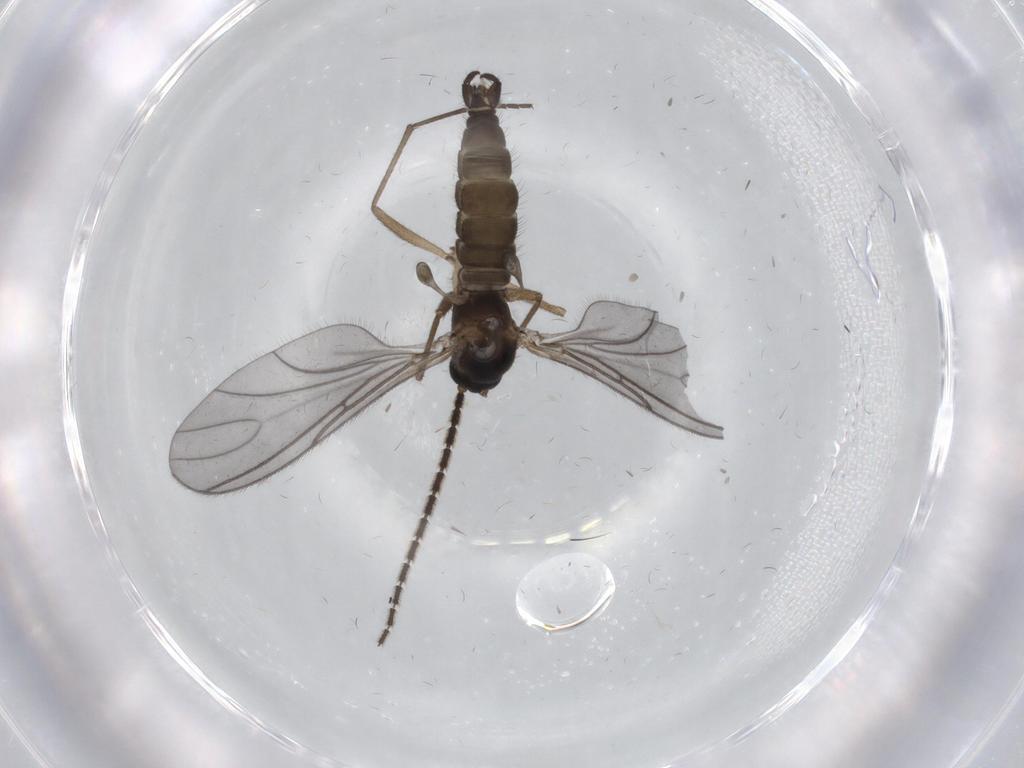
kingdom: Animalia
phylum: Arthropoda
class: Insecta
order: Diptera
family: Sciaridae
